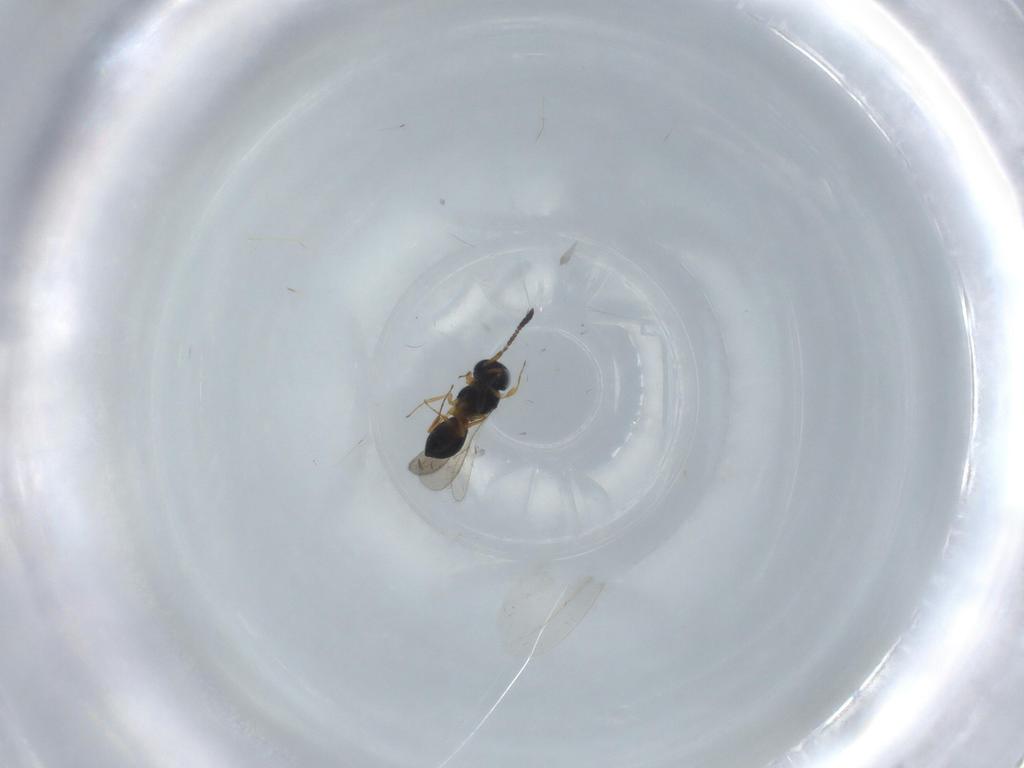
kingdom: Animalia
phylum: Arthropoda
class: Insecta
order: Hymenoptera
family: Scelionidae
